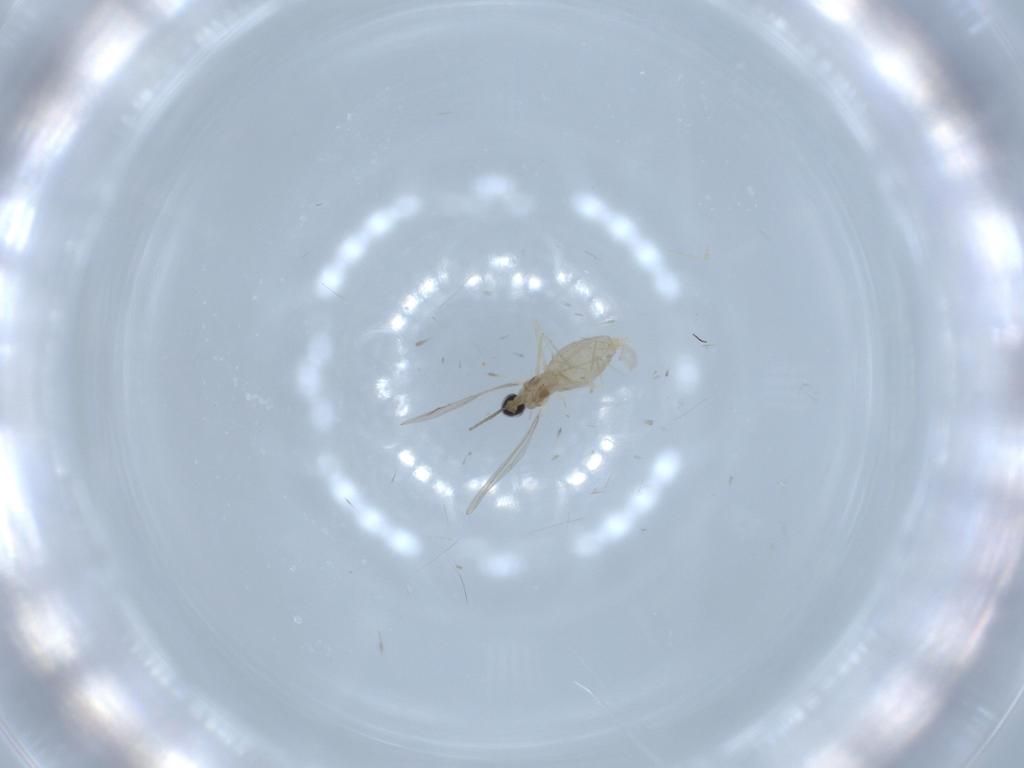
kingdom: Animalia
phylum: Arthropoda
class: Insecta
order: Diptera
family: Cecidomyiidae
